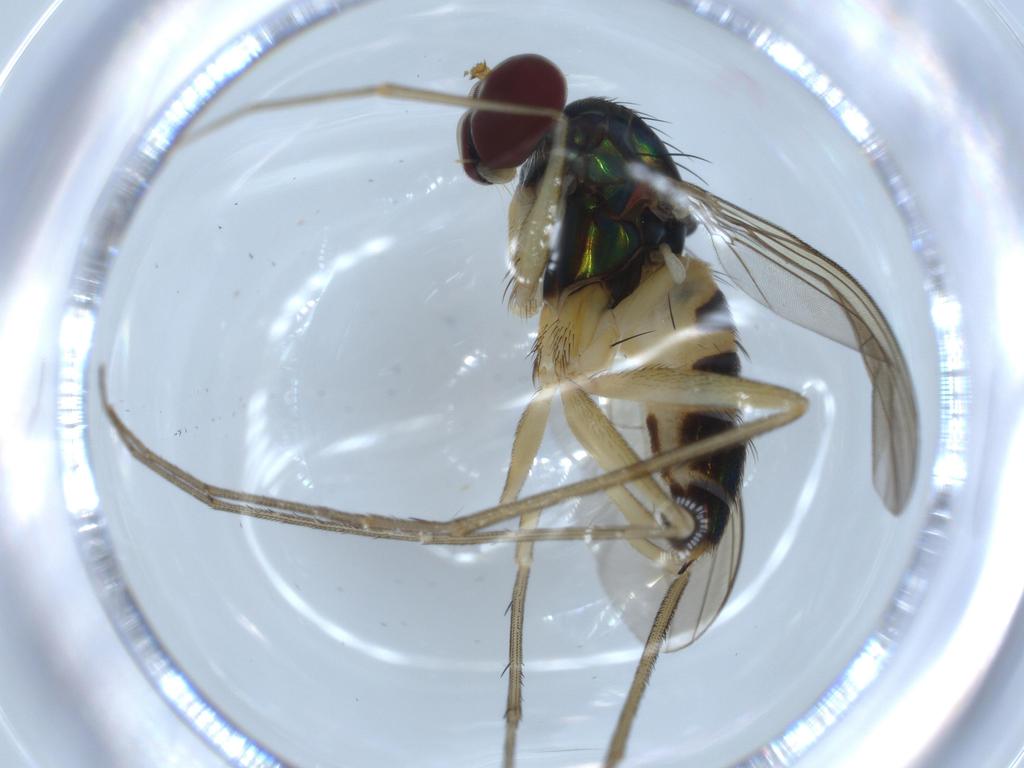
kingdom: Animalia
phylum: Arthropoda
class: Insecta
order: Diptera
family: Dolichopodidae
